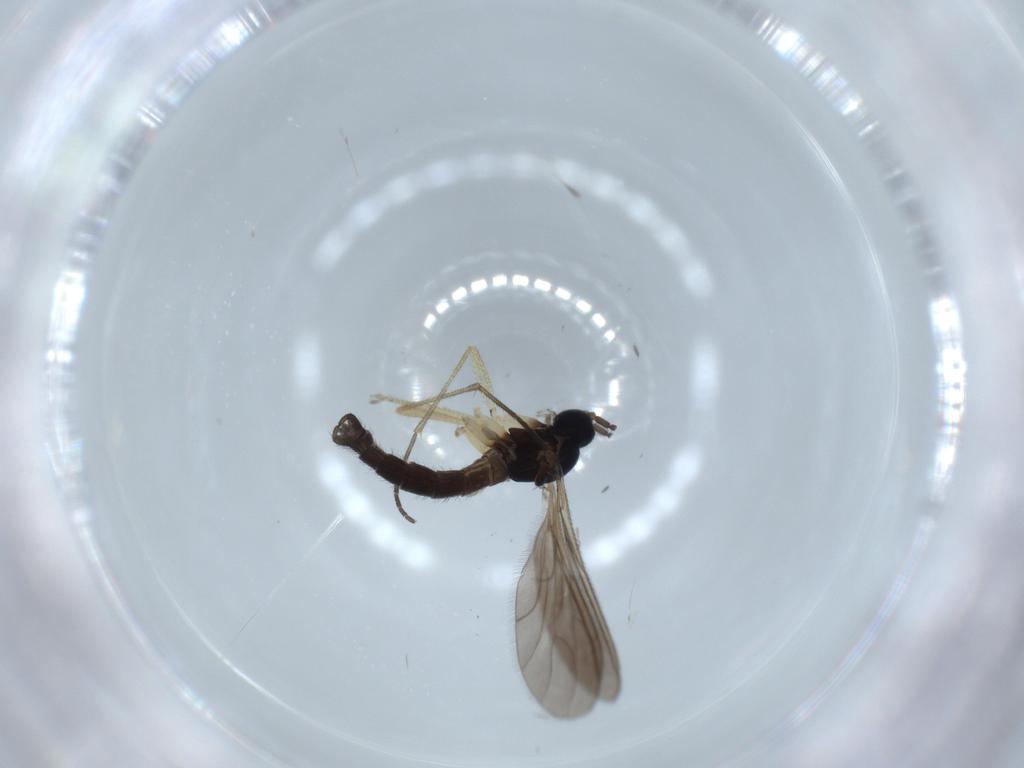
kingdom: Animalia
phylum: Arthropoda
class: Insecta
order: Diptera
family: Sciaridae
